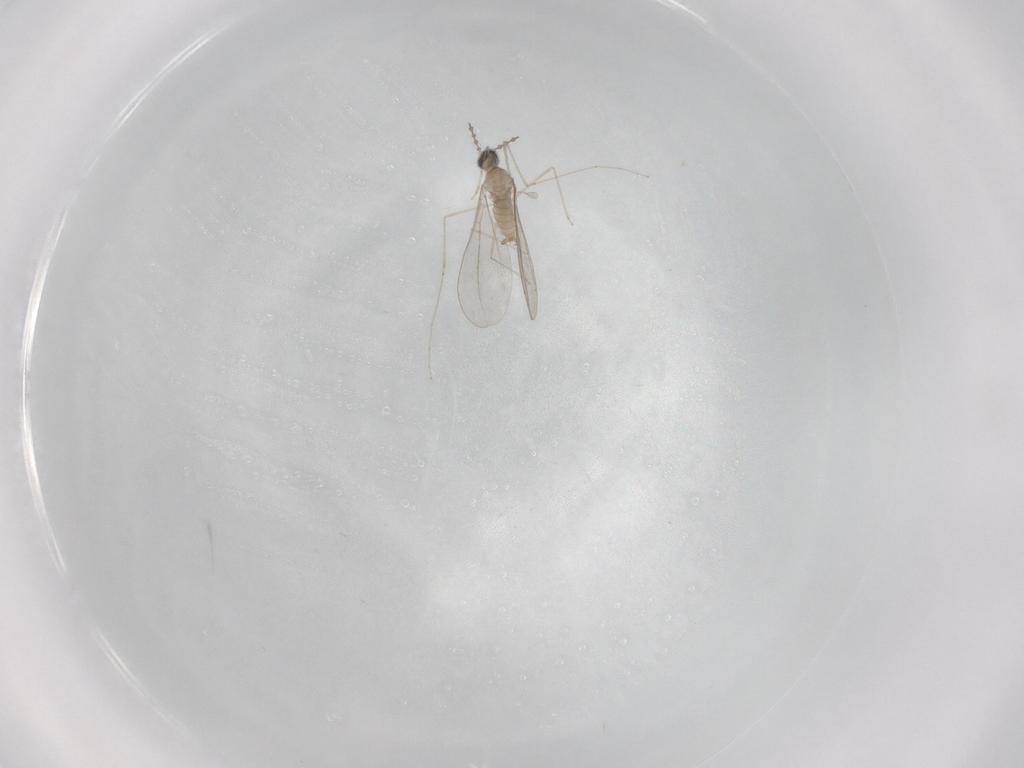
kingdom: Animalia
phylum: Arthropoda
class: Insecta
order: Diptera
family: Cecidomyiidae
